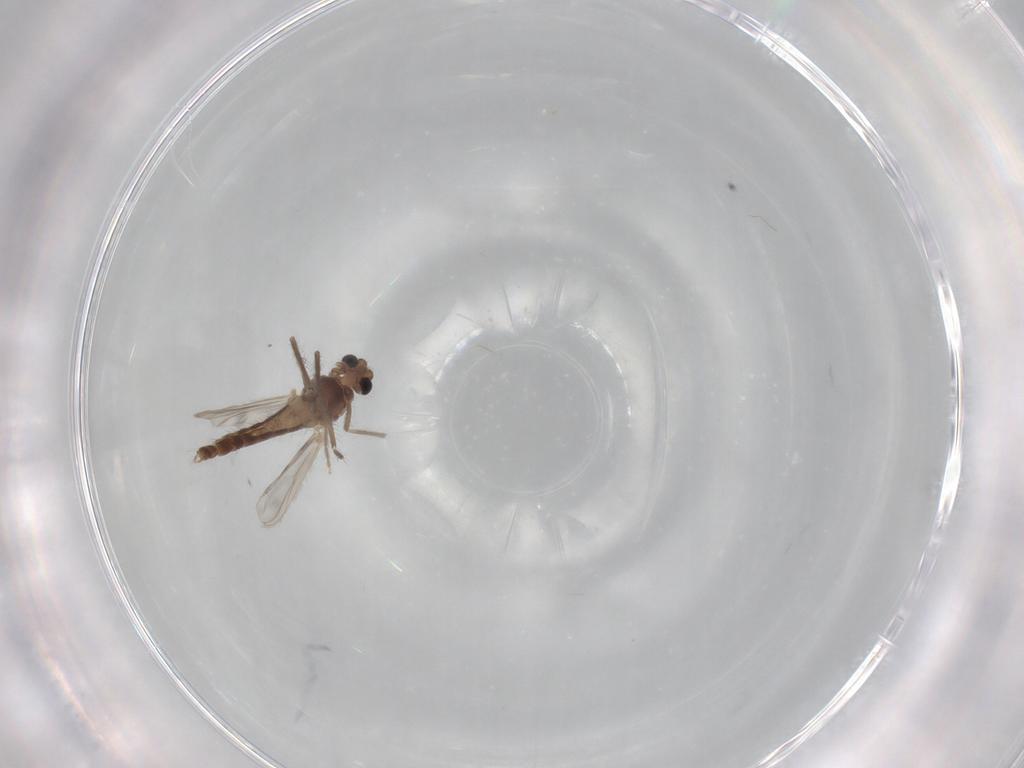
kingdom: Animalia
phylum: Arthropoda
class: Insecta
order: Diptera
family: Chironomidae
